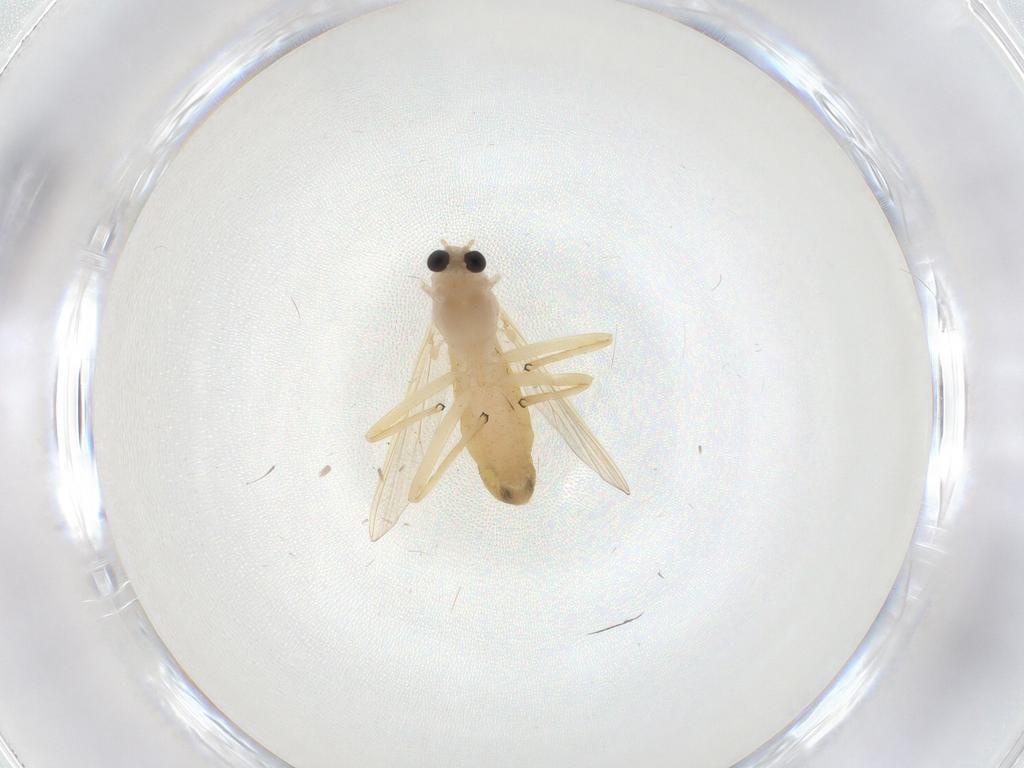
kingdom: Animalia
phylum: Arthropoda
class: Insecta
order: Diptera
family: Chironomidae
